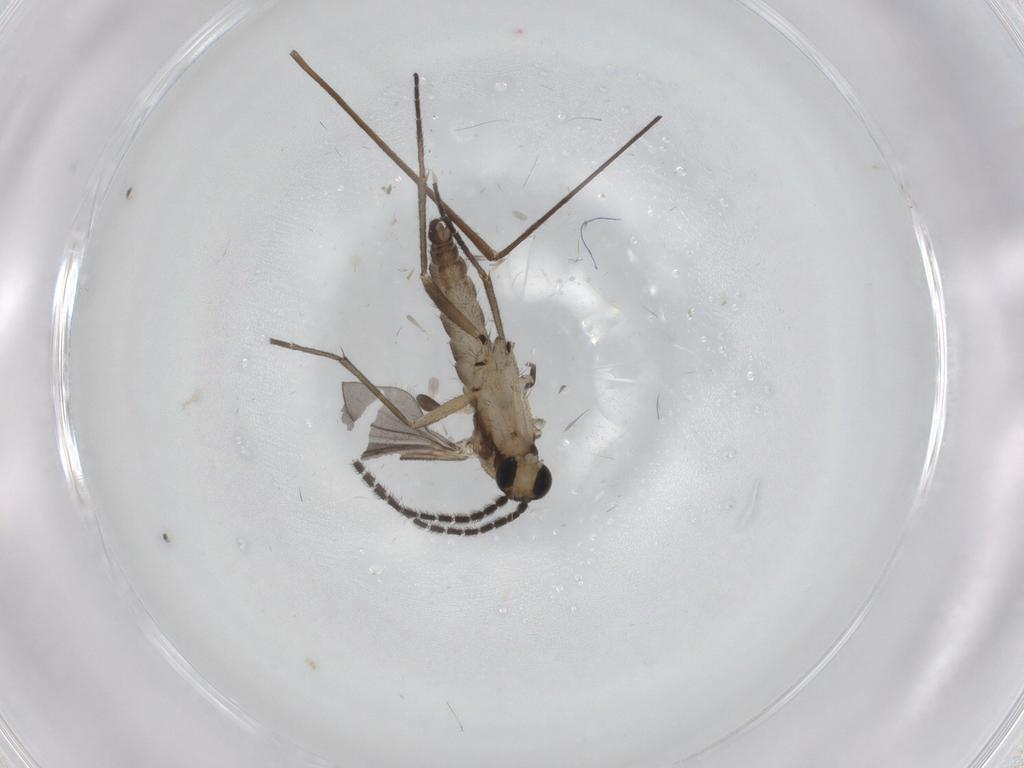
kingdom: Animalia
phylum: Arthropoda
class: Insecta
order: Diptera
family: Sciaridae
